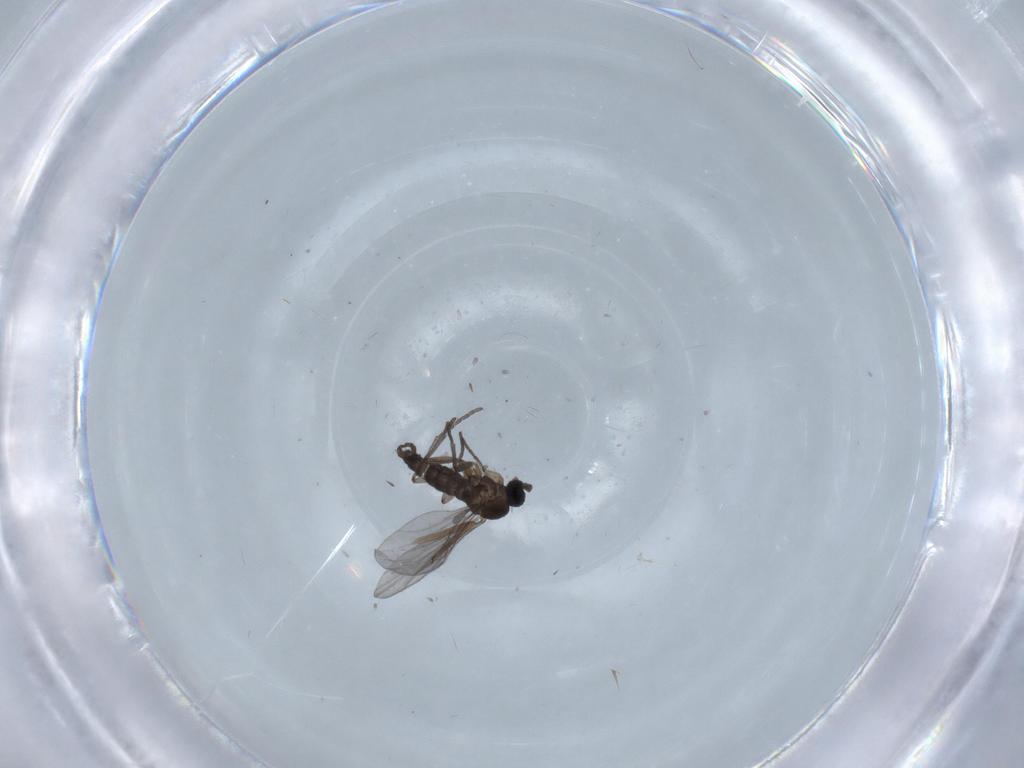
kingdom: Animalia
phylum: Arthropoda
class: Insecta
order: Diptera
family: Chironomidae
